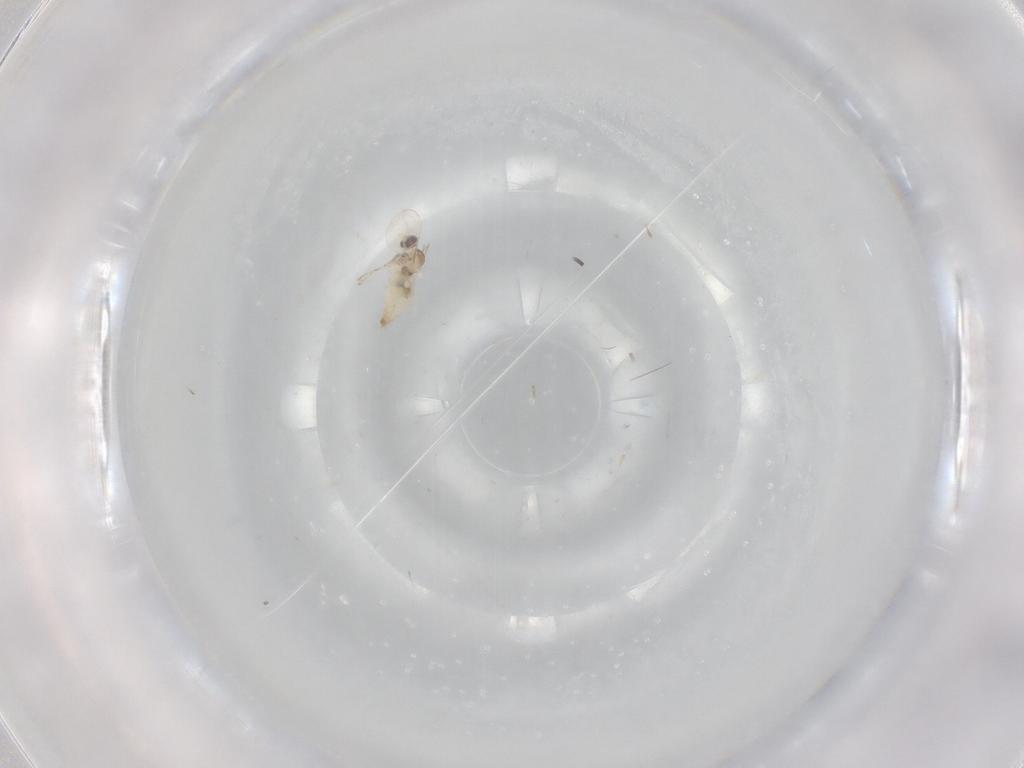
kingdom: Animalia
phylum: Arthropoda
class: Insecta
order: Diptera
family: Cecidomyiidae
